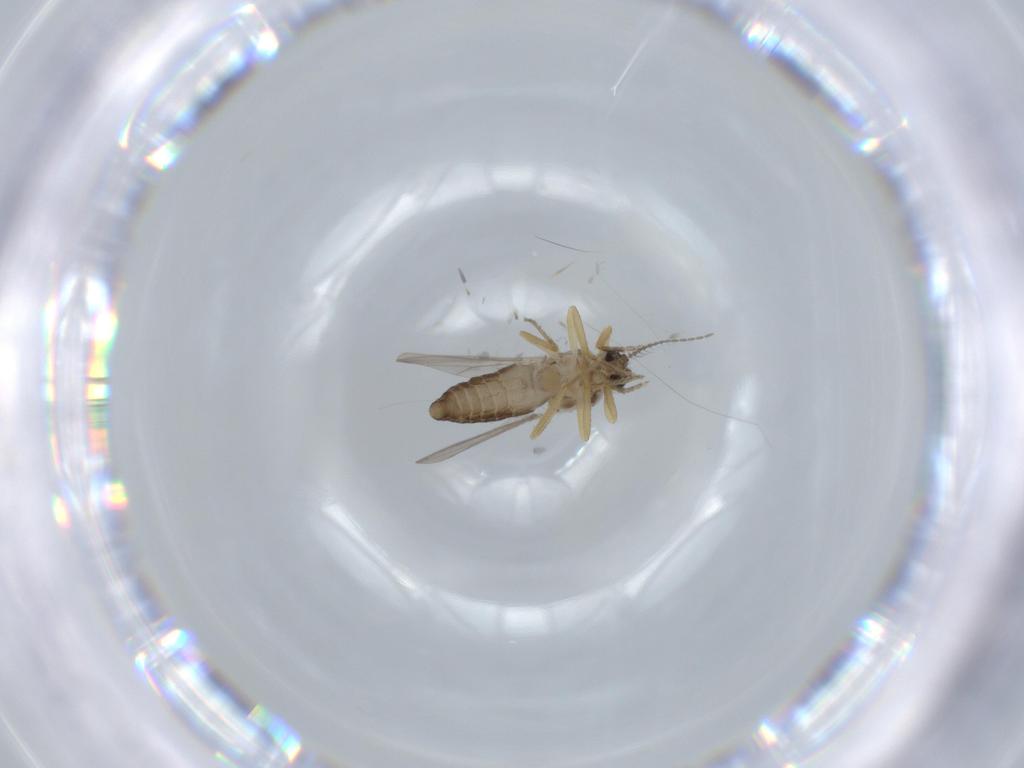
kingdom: Animalia
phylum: Arthropoda
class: Insecta
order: Diptera
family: Ceratopogonidae
